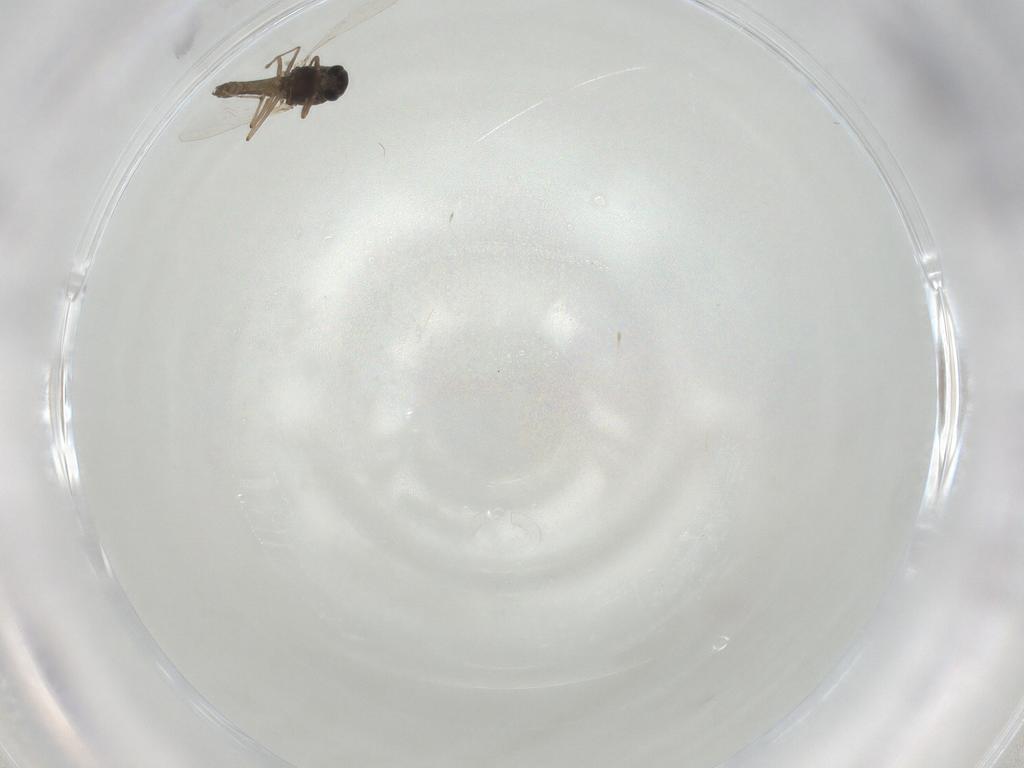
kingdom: Animalia
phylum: Arthropoda
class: Insecta
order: Diptera
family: Chironomidae
